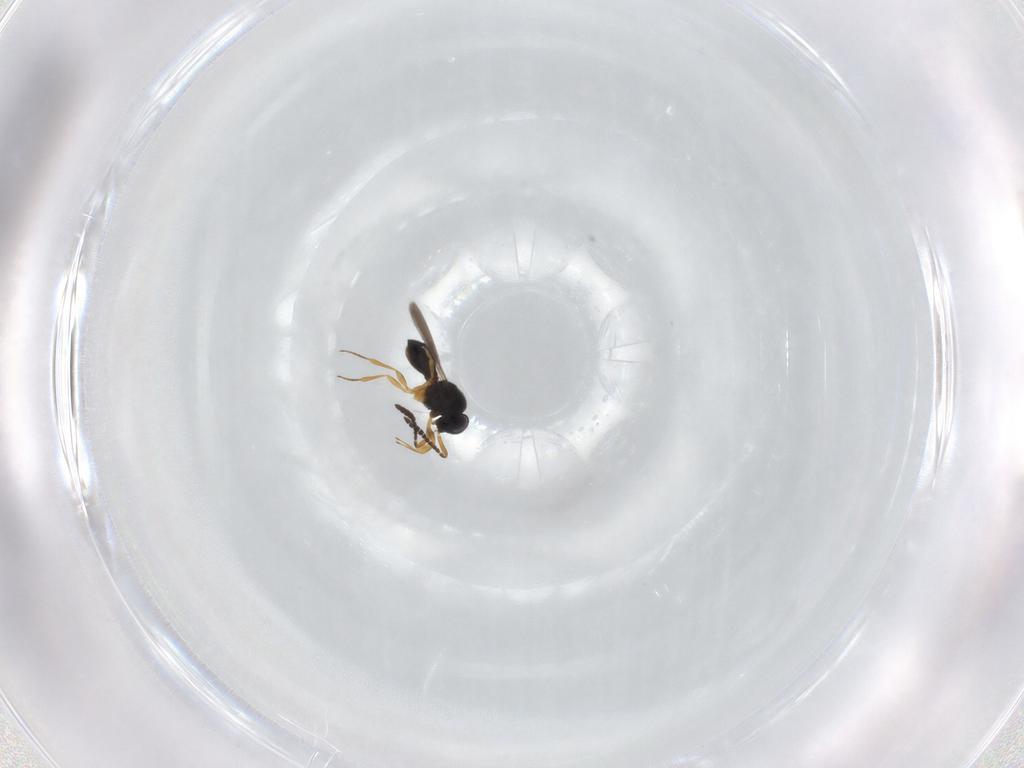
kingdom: Animalia
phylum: Arthropoda
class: Insecta
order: Hymenoptera
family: Scelionidae
